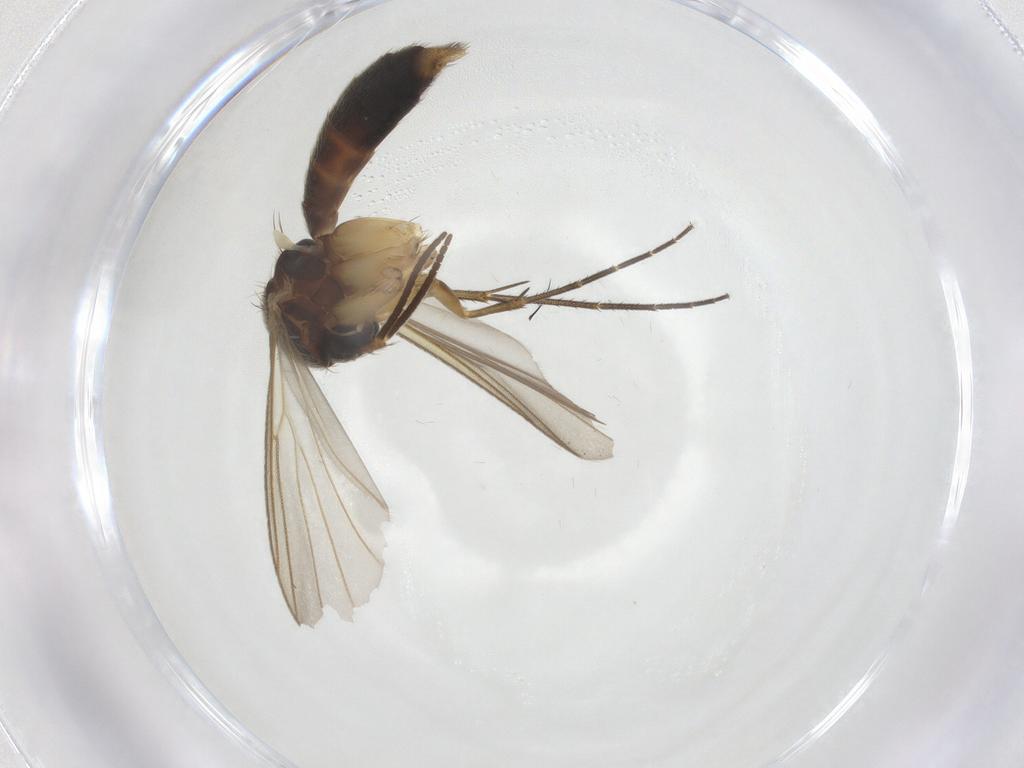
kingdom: Animalia
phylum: Arthropoda
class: Insecta
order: Diptera
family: Mycetophilidae
